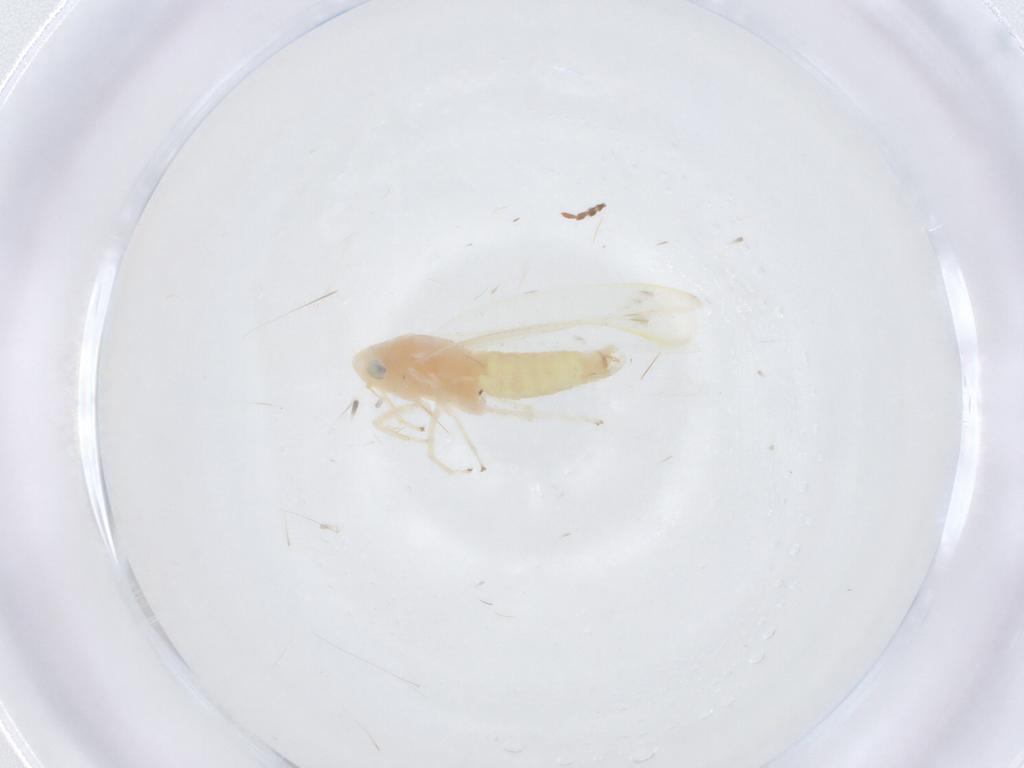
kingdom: Animalia
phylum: Arthropoda
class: Insecta
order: Hemiptera
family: Cicadellidae
